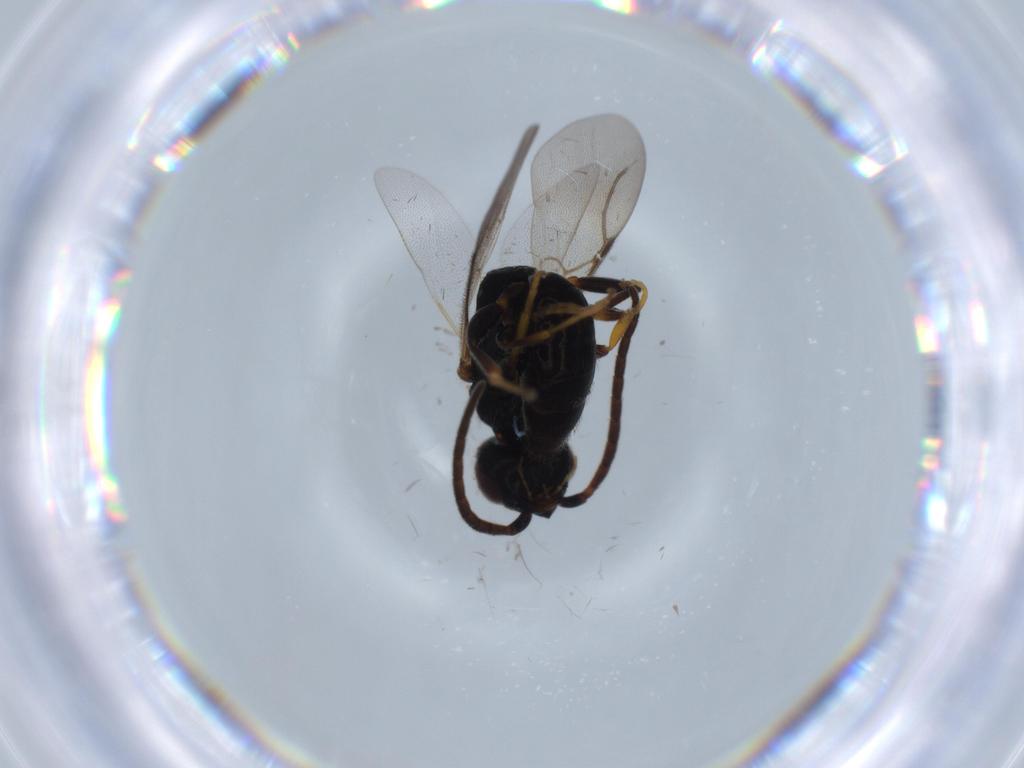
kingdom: Animalia
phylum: Arthropoda
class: Insecta
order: Hymenoptera
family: Bethylidae
